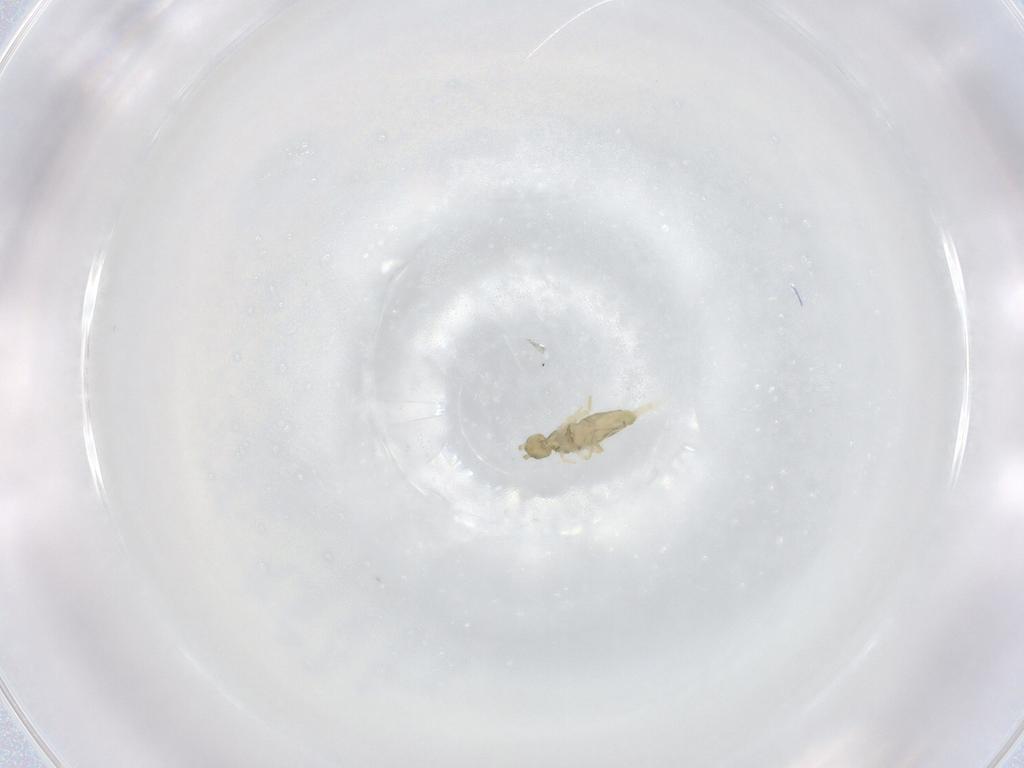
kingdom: Animalia
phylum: Arthropoda
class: Collembola
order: Entomobryomorpha
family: Entomobryidae
